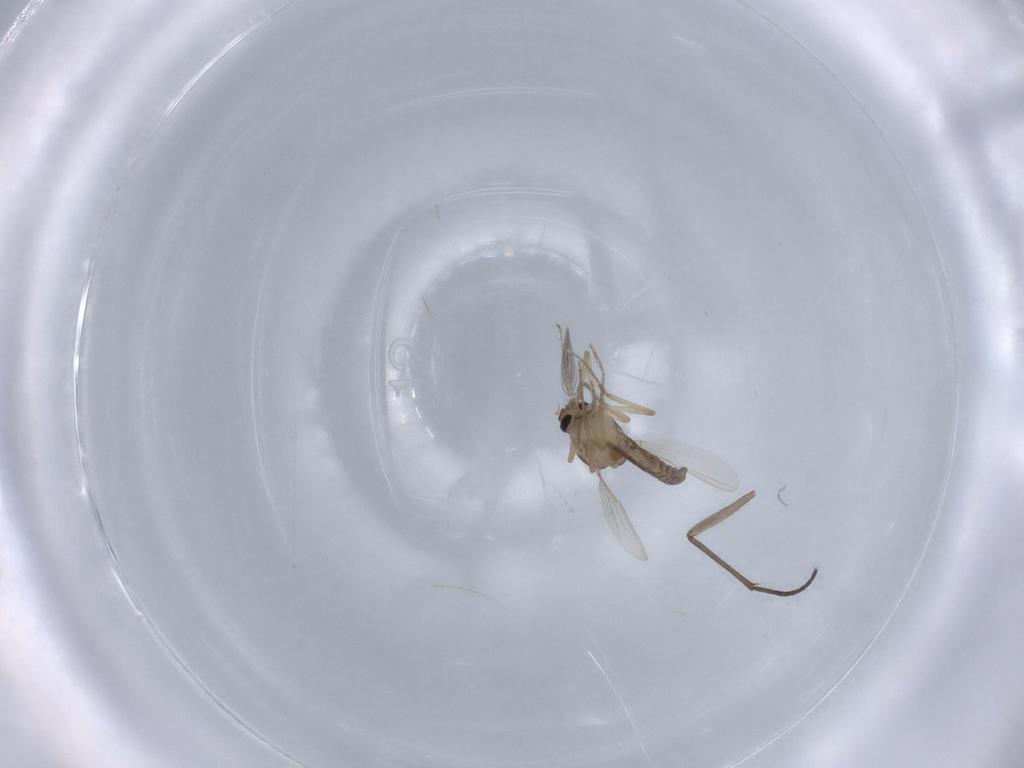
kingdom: Animalia
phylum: Arthropoda
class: Insecta
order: Diptera
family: Ceratopogonidae
